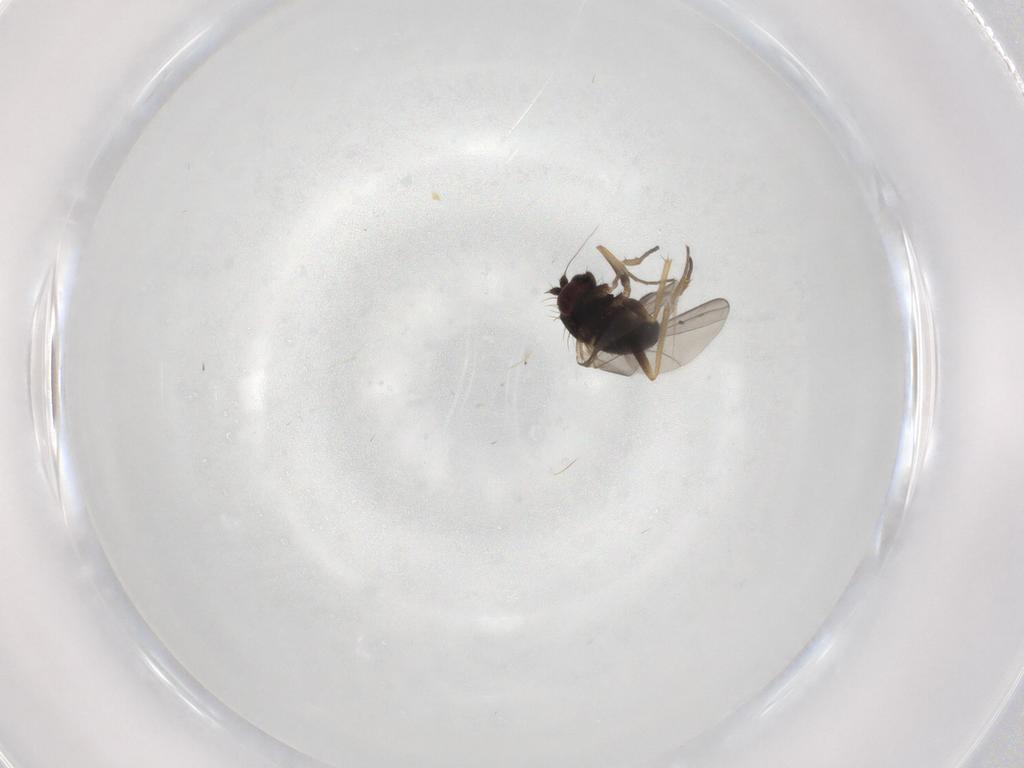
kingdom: Animalia
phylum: Arthropoda
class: Insecta
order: Diptera
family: Dolichopodidae
